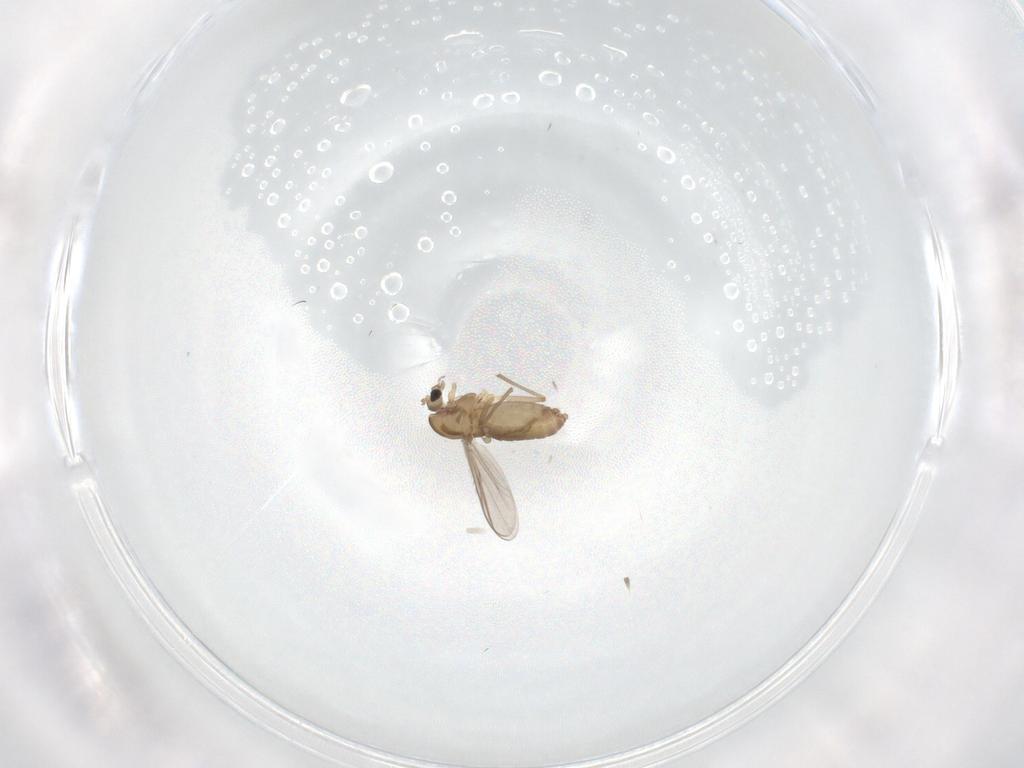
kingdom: Animalia
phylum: Arthropoda
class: Insecta
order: Diptera
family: Chironomidae
